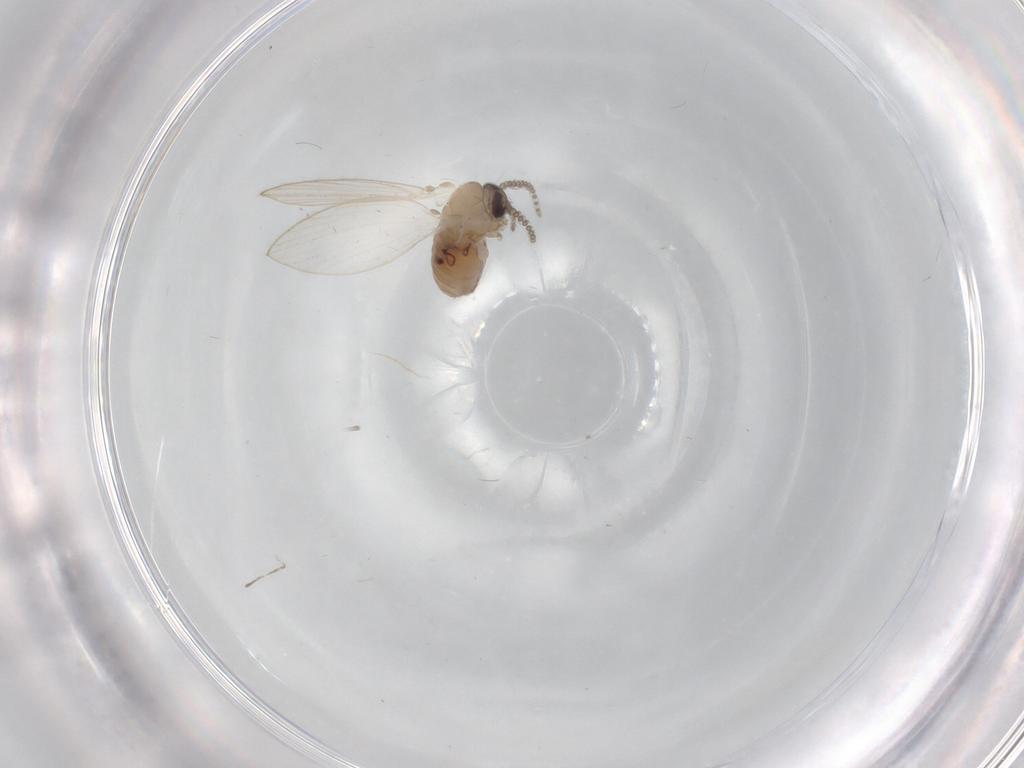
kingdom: Animalia
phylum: Arthropoda
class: Insecta
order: Diptera
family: Psychodidae
